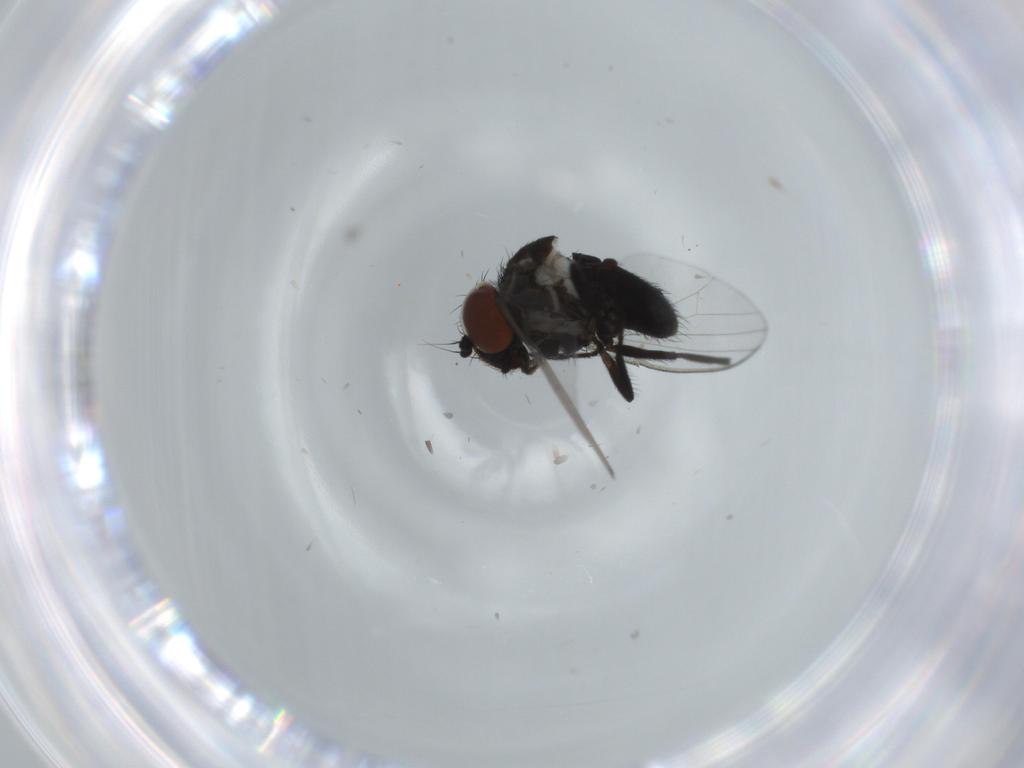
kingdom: Animalia
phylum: Arthropoda
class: Insecta
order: Diptera
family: Milichiidae
